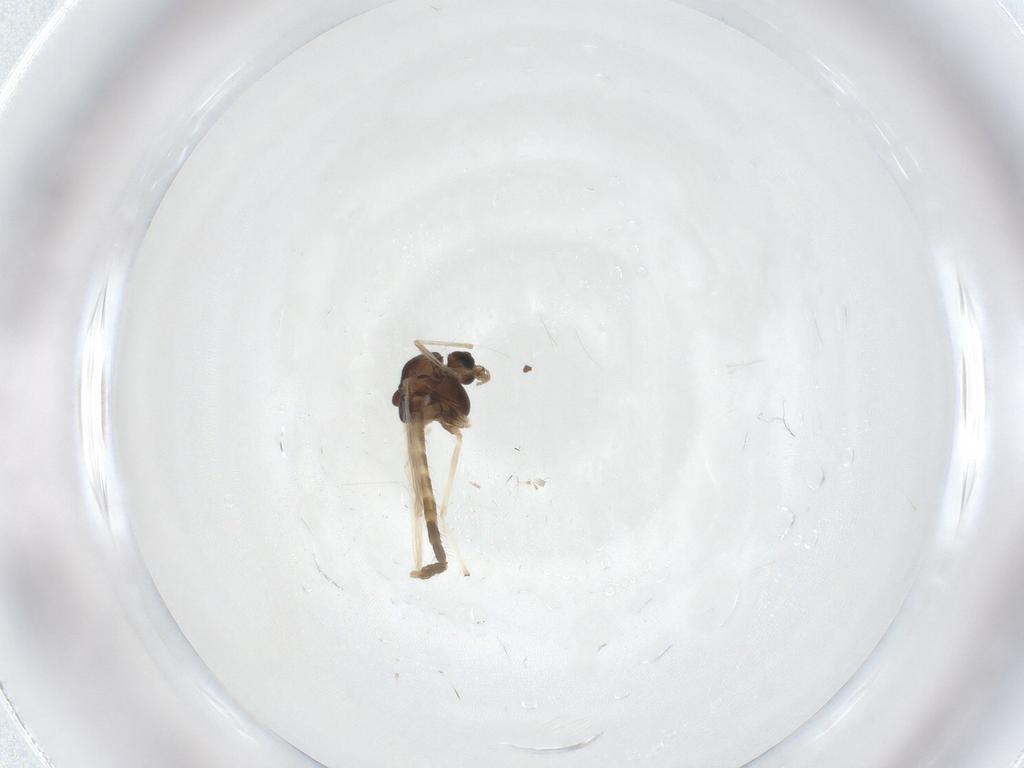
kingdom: Animalia
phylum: Arthropoda
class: Insecta
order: Diptera
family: Chironomidae
